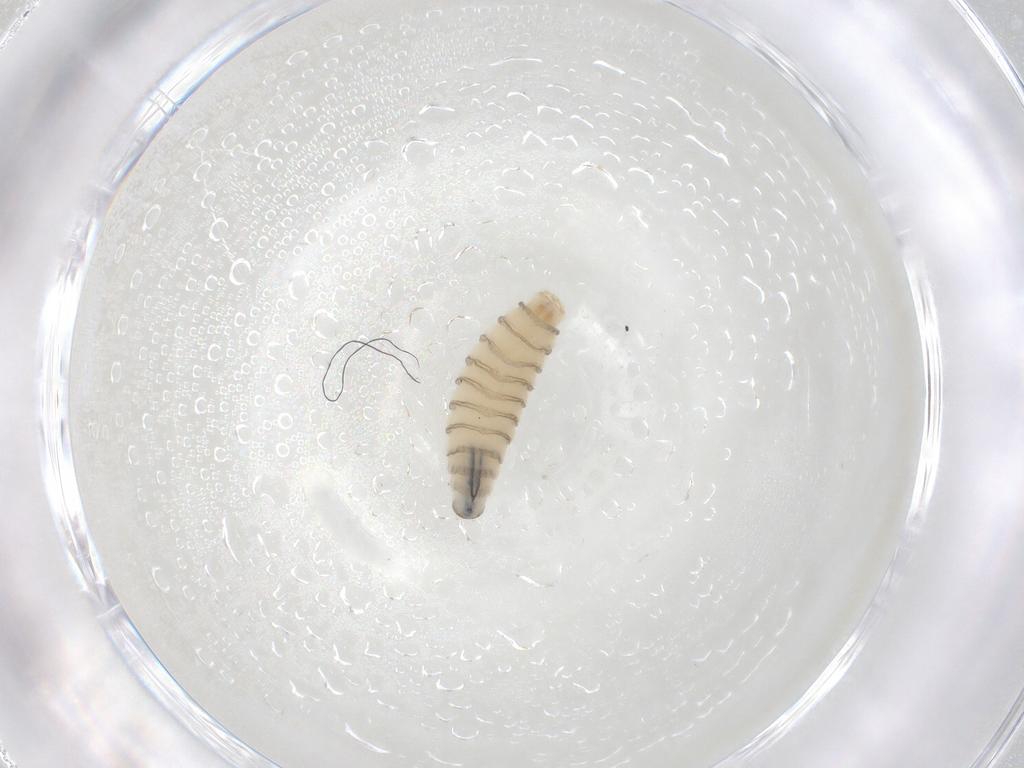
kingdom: Animalia
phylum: Arthropoda
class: Insecta
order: Diptera
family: Sarcophagidae
